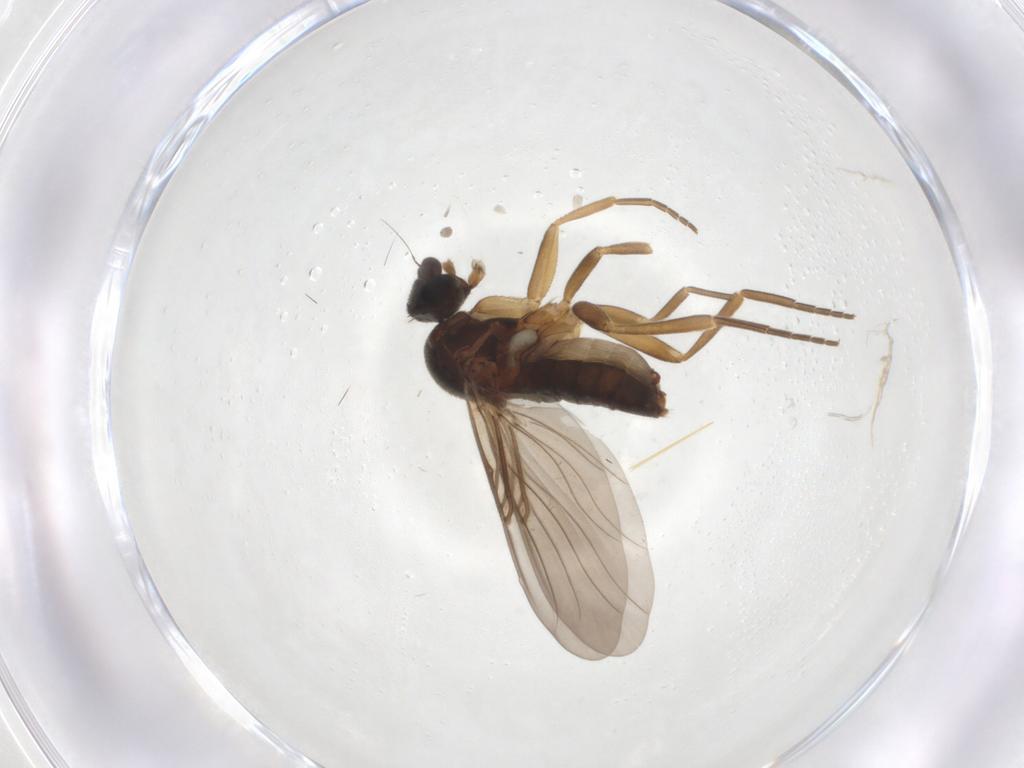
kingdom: Animalia
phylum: Arthropoda
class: Insecta
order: Diptera
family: Phoridae
